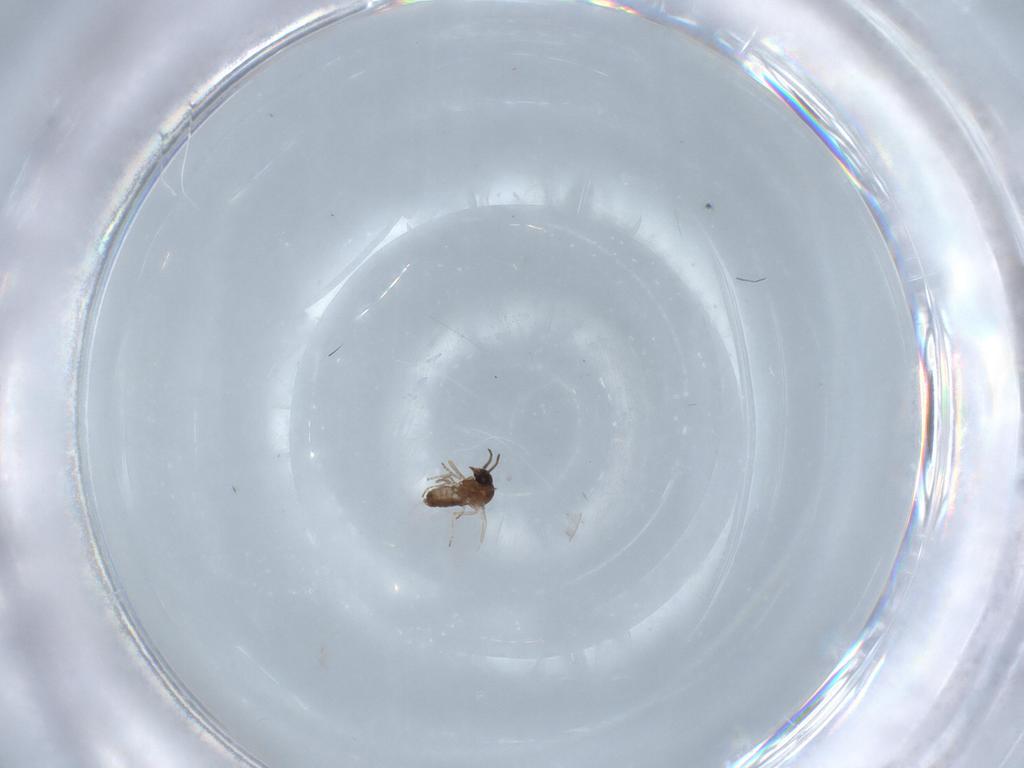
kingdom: Animalia
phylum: Arthropoda
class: Insecta
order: Diptera
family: Ceratopogonidae
